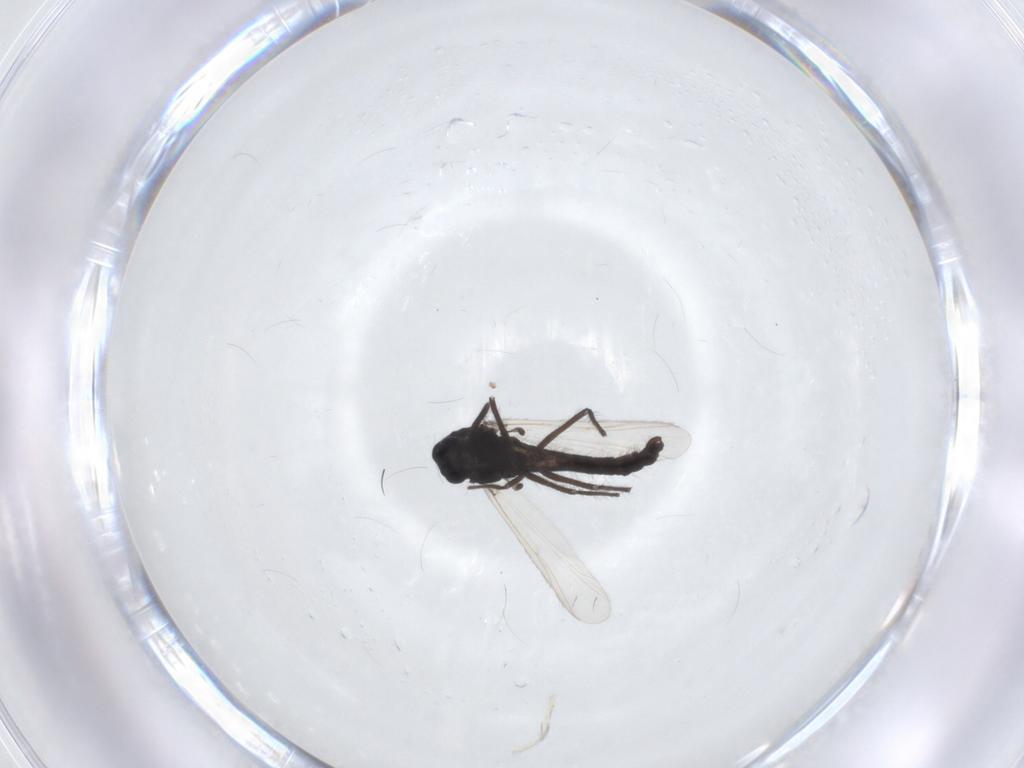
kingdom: Animalia
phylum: Arthropoda
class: Insecta
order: Diptera
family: Chironomidae
